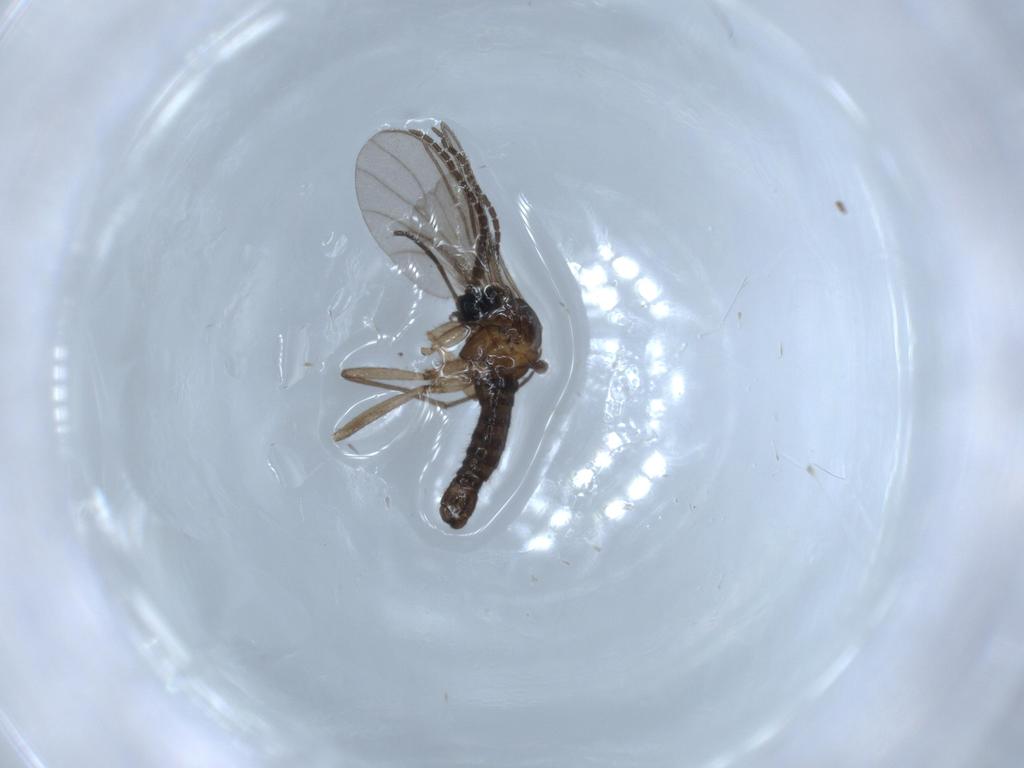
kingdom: Animalia
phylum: Arthropoda
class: Insecta
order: Diptera
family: Sciaridae
